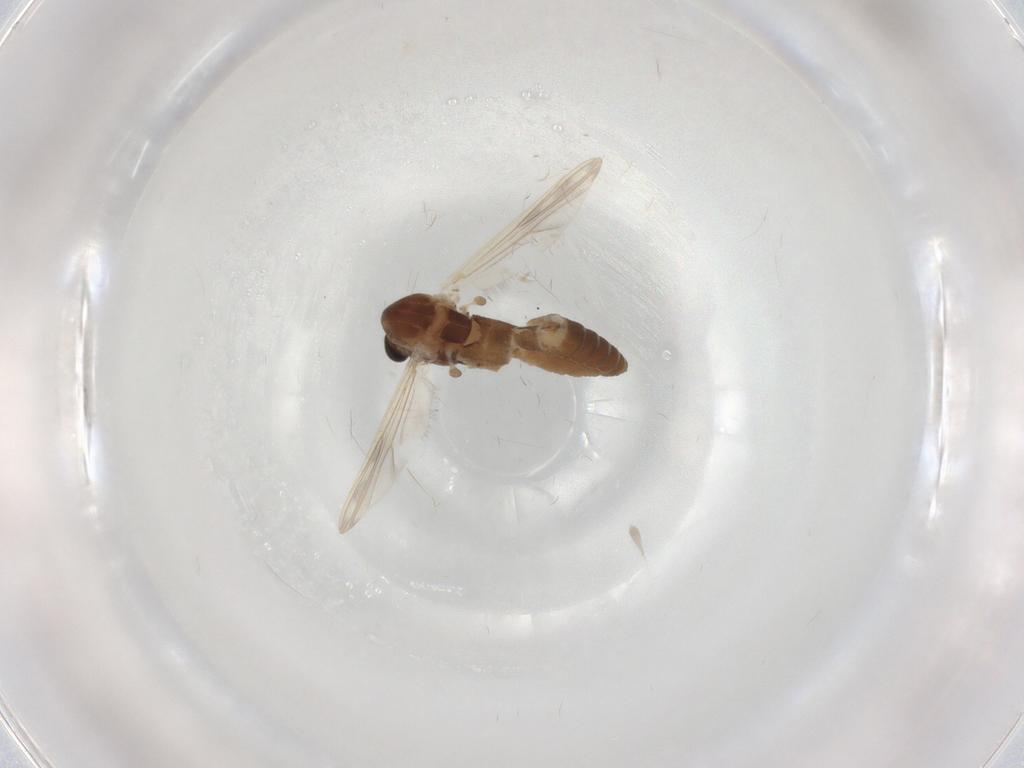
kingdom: Animalia
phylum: Arthropoda
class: Insecta
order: Diptera
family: Chironomidae
